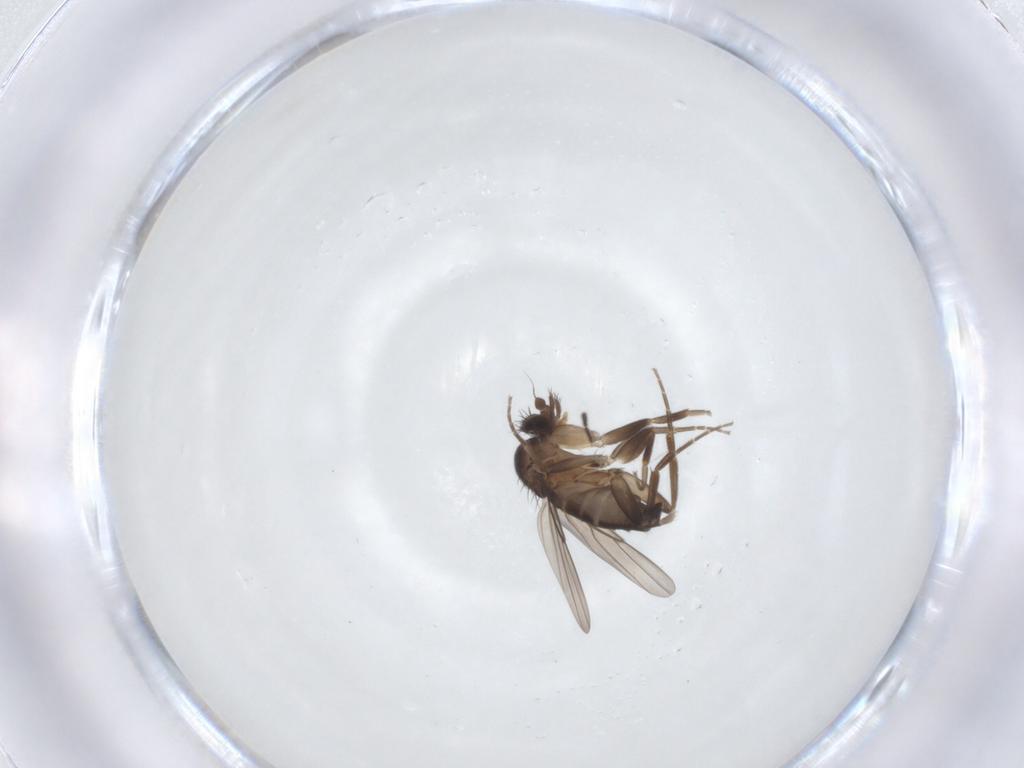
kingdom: Animalia
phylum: Arthropoda
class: Insecta
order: Diptera
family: Sciaridae
